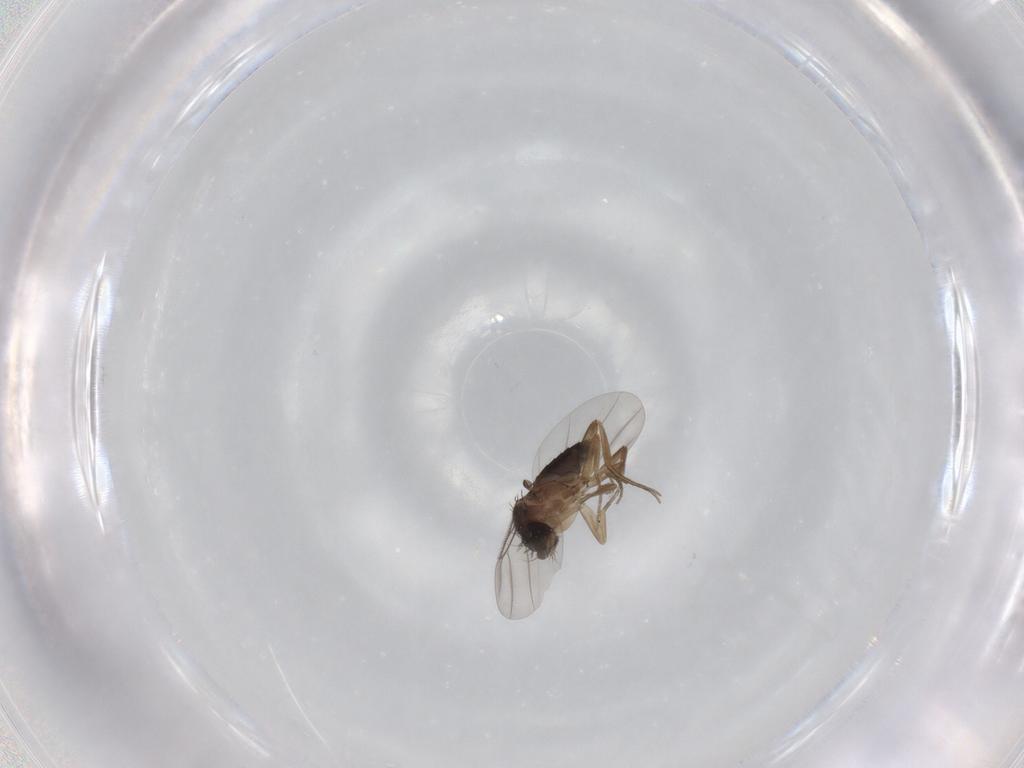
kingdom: Animalia
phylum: Arthropoda
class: Insecta
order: Diptera
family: Phoridae
